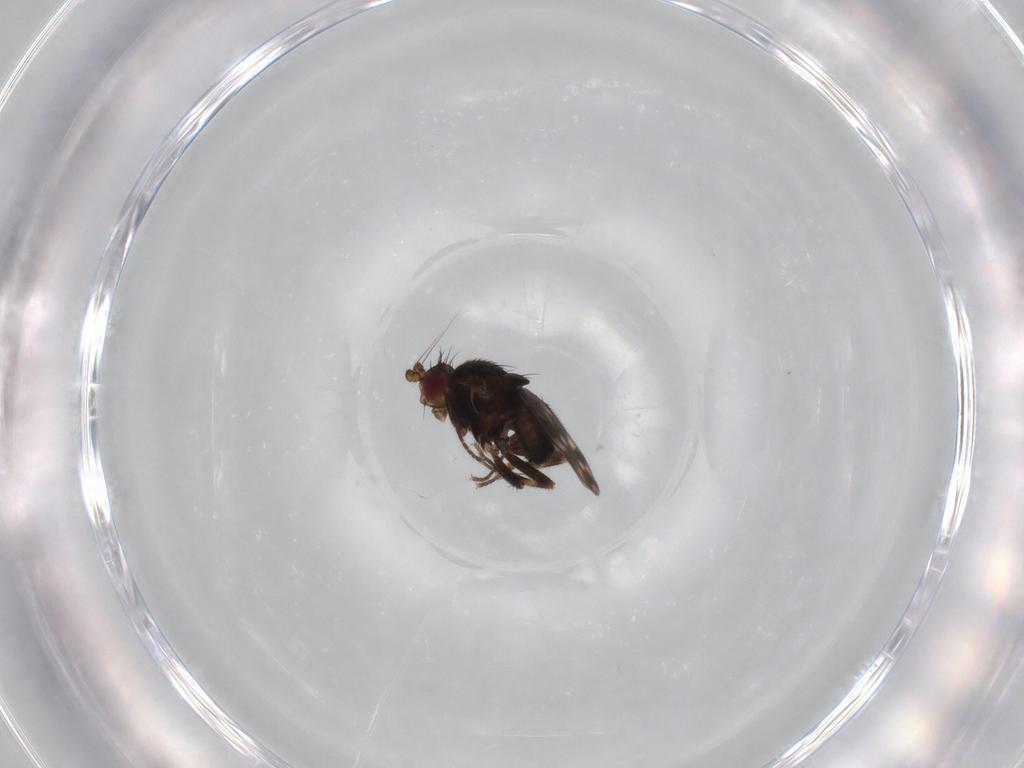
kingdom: Animalia
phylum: Arthropoda
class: Insecta
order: Diptera
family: Sphaeroceridae
